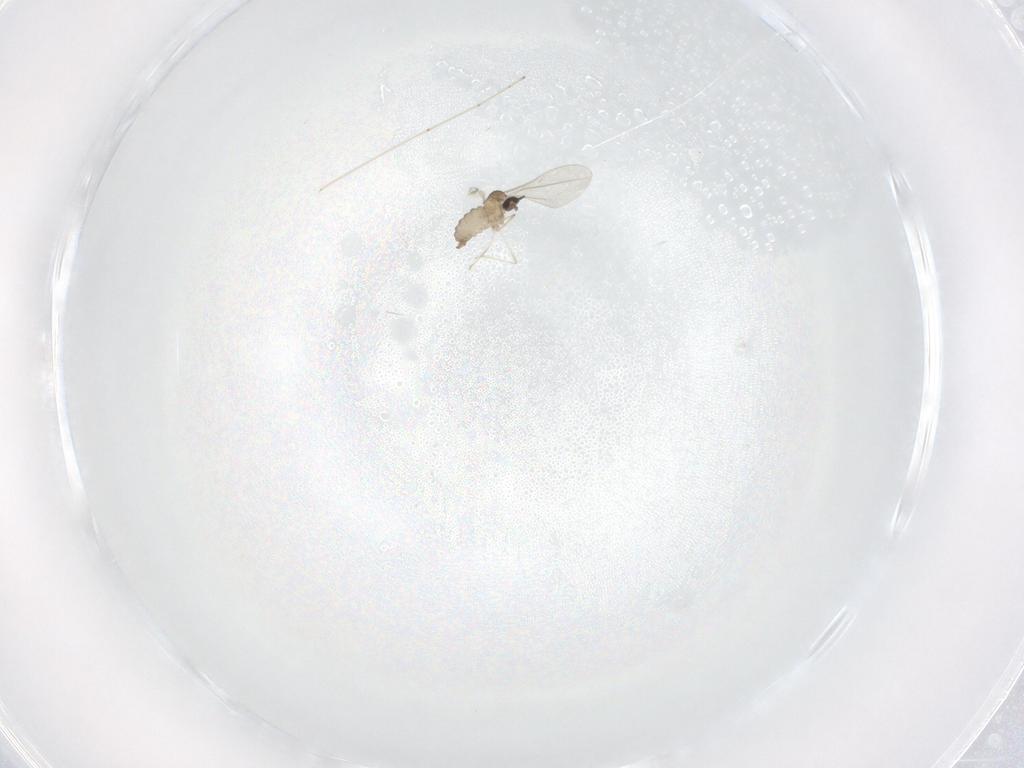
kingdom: Animalia
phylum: Arthropoda
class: Insecta
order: Diptera
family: Cecidomyiidae
